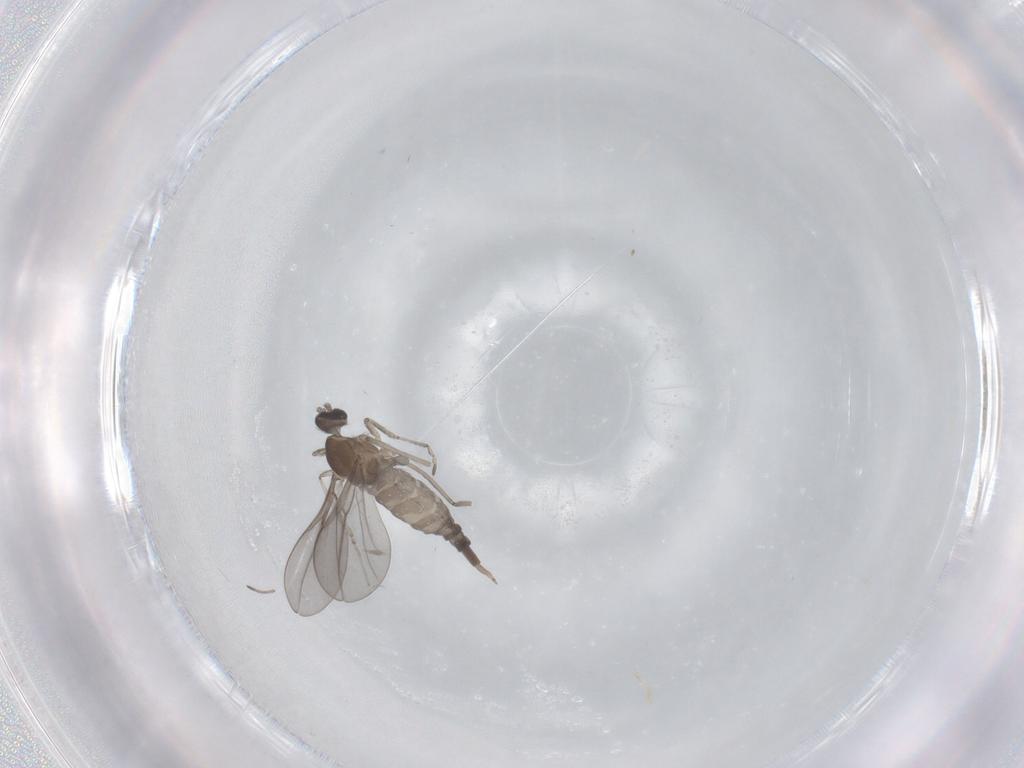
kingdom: Animalia
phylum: Arthropoda
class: Insecta
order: Diptera
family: Cecidomyiidae
